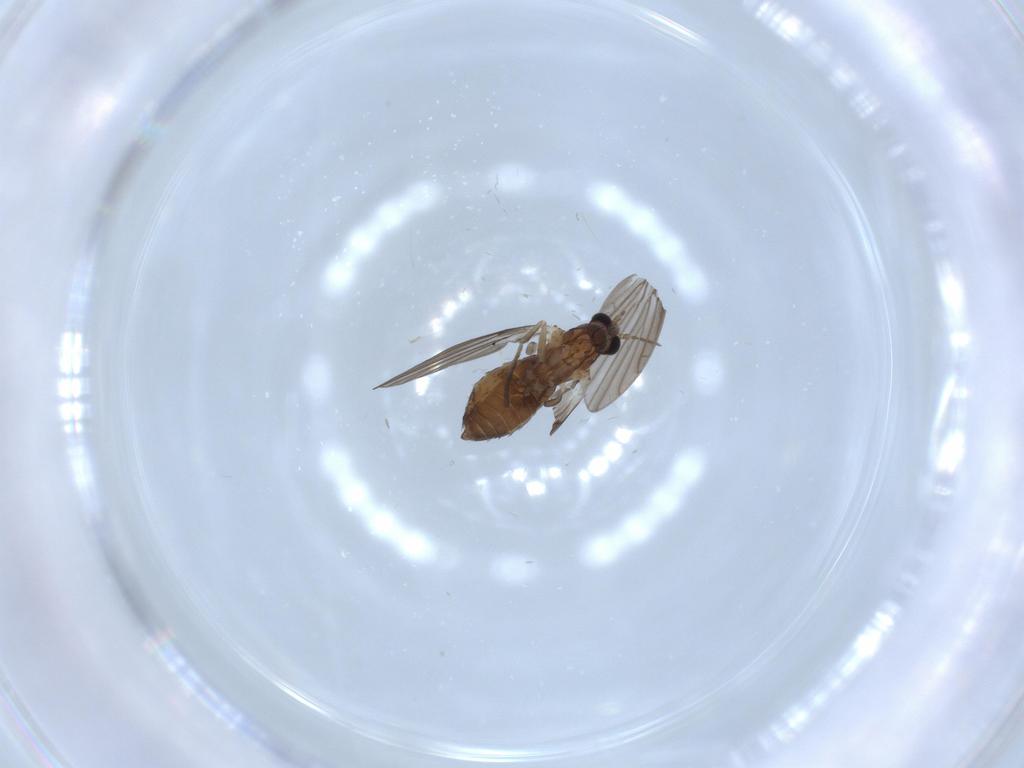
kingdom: Animalia
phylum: Arthropoda
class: Insecta
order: Diptera
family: Psychodidae
